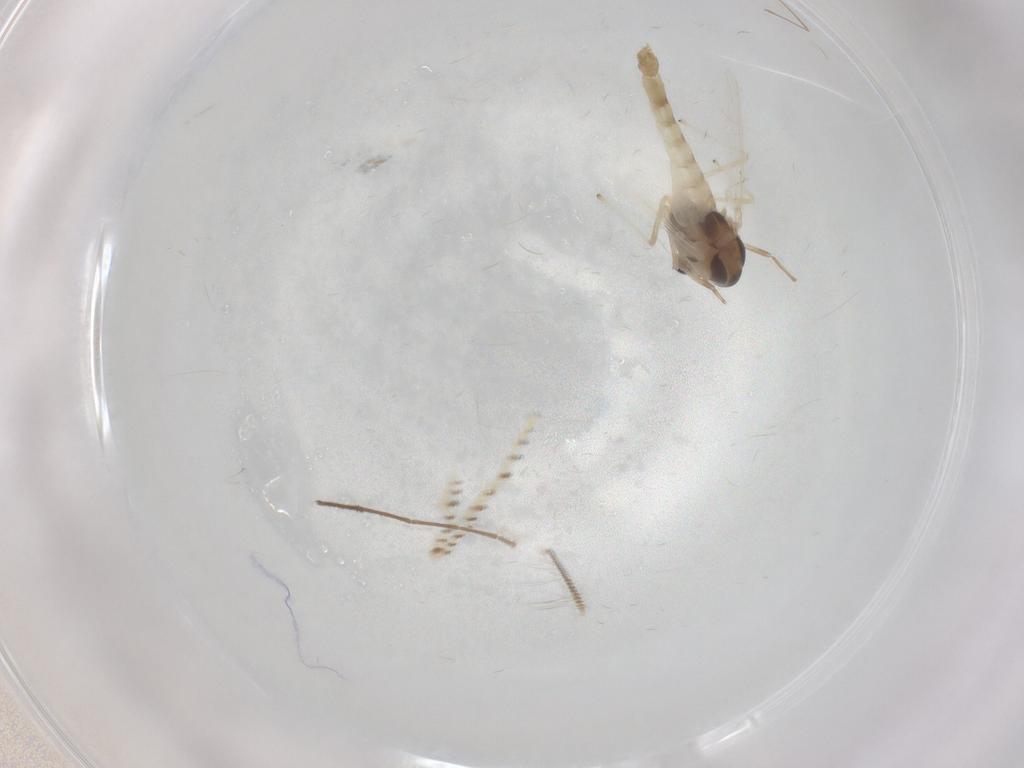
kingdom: Animalia
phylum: Arthropoda
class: Insecta
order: Diptera
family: Chironomidae
